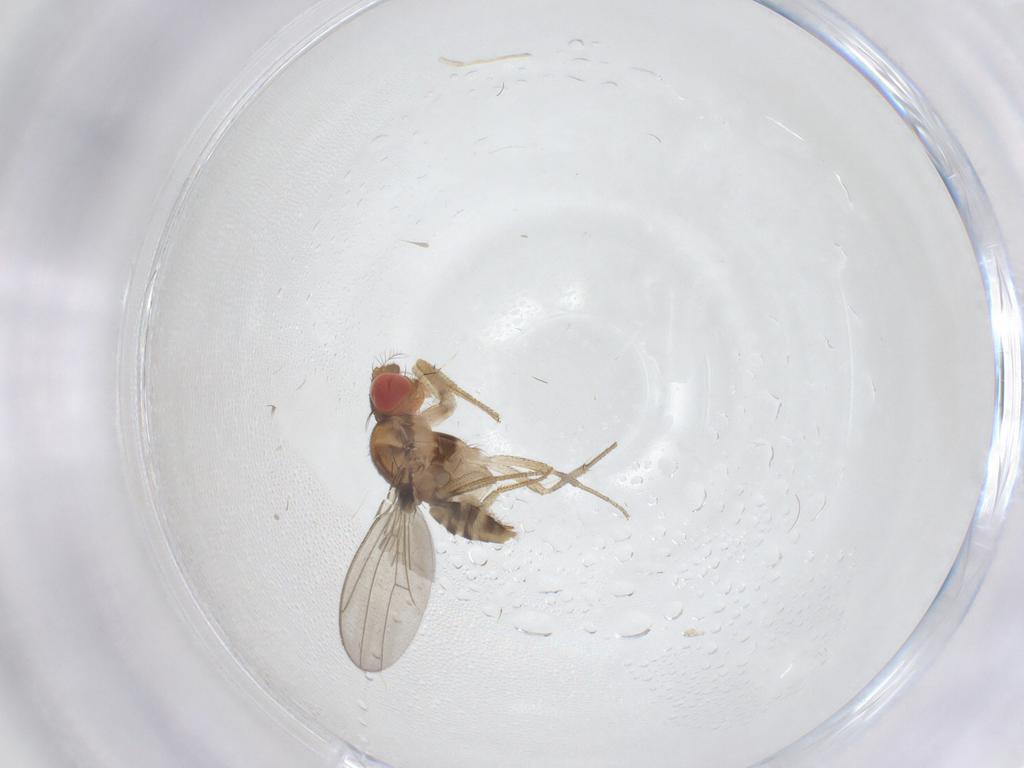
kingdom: Animalia
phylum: Arthropoda
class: Insecta
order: Diptera
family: Drosophilidae
